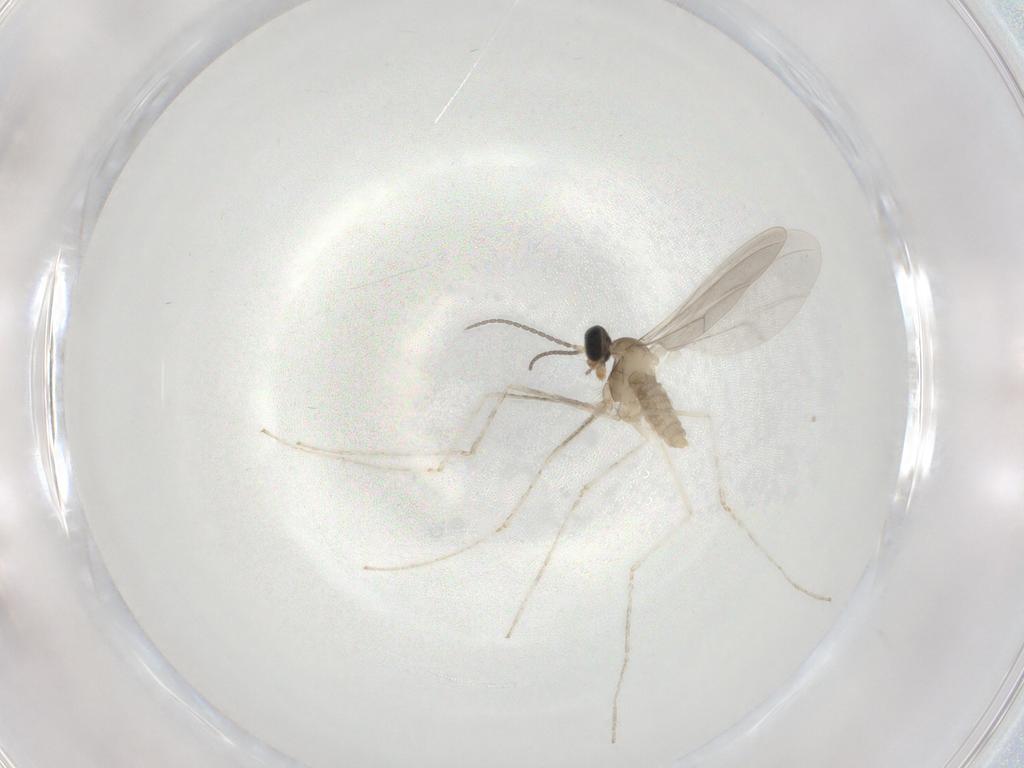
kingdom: Animalia
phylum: Arthropoda
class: Insecta
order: Diptera
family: Cecidomyiidae
